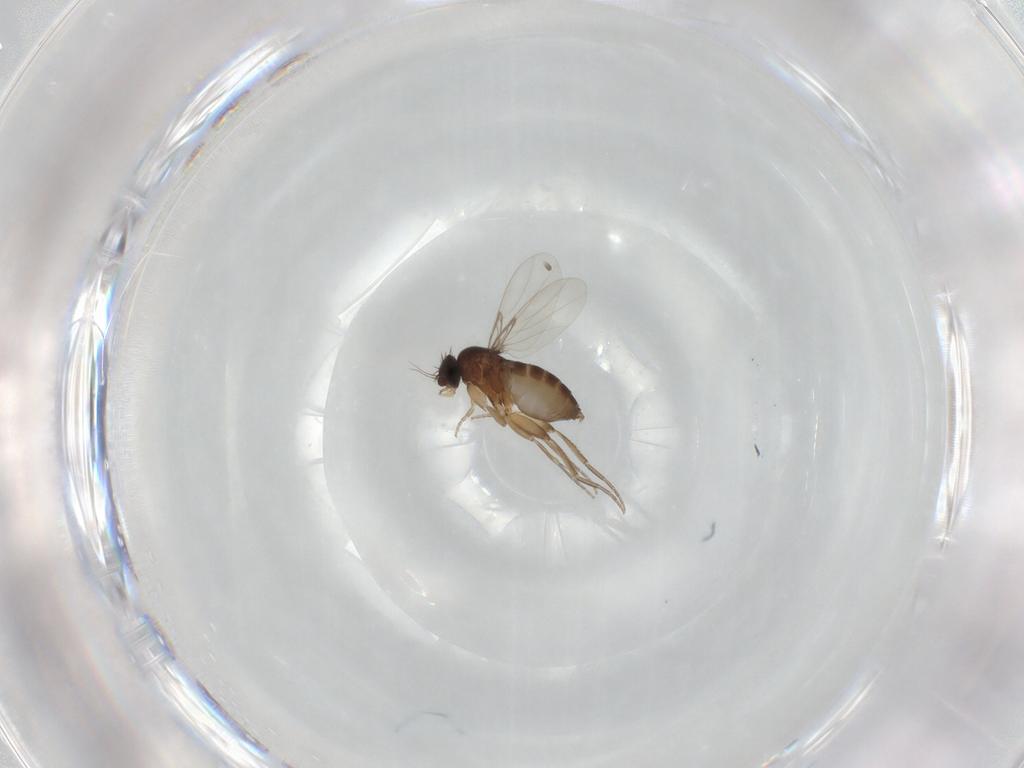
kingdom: Animalia
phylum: Arthropoda
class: Insecta
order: Diptera
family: Phoridae
